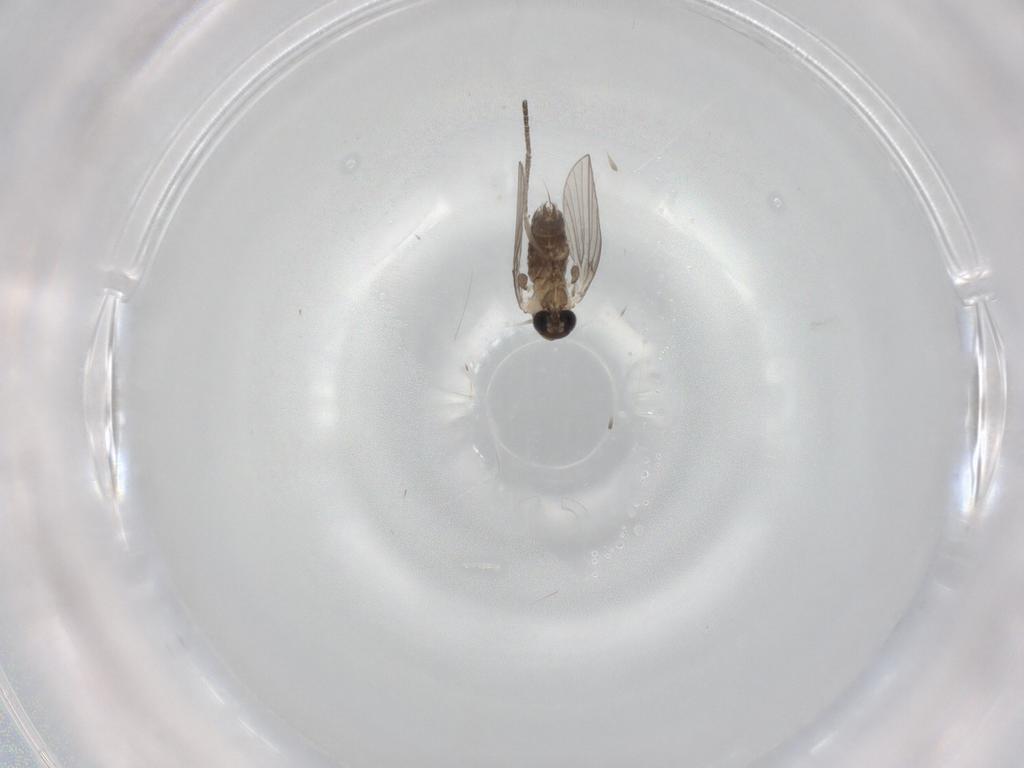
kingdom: Animalia
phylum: Arthropoda
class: Insecta
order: Diptera
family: Psychodidae
